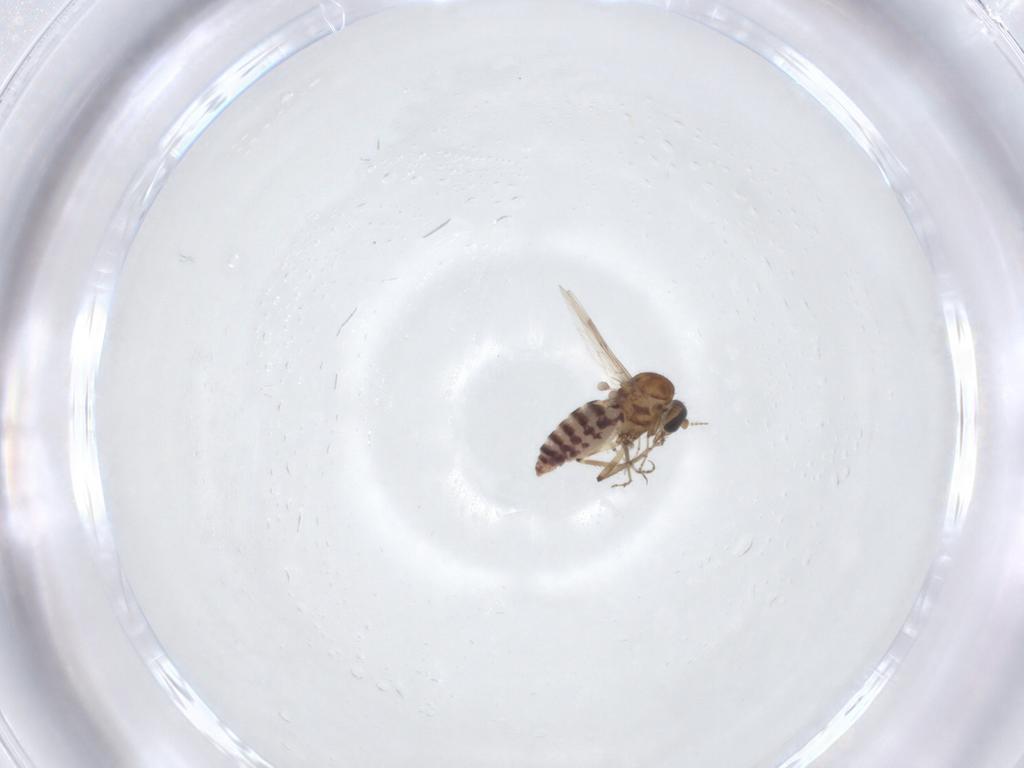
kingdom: Animalia
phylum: Arthropoda
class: Insecta
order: Diptera
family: Ceratopogonidae
